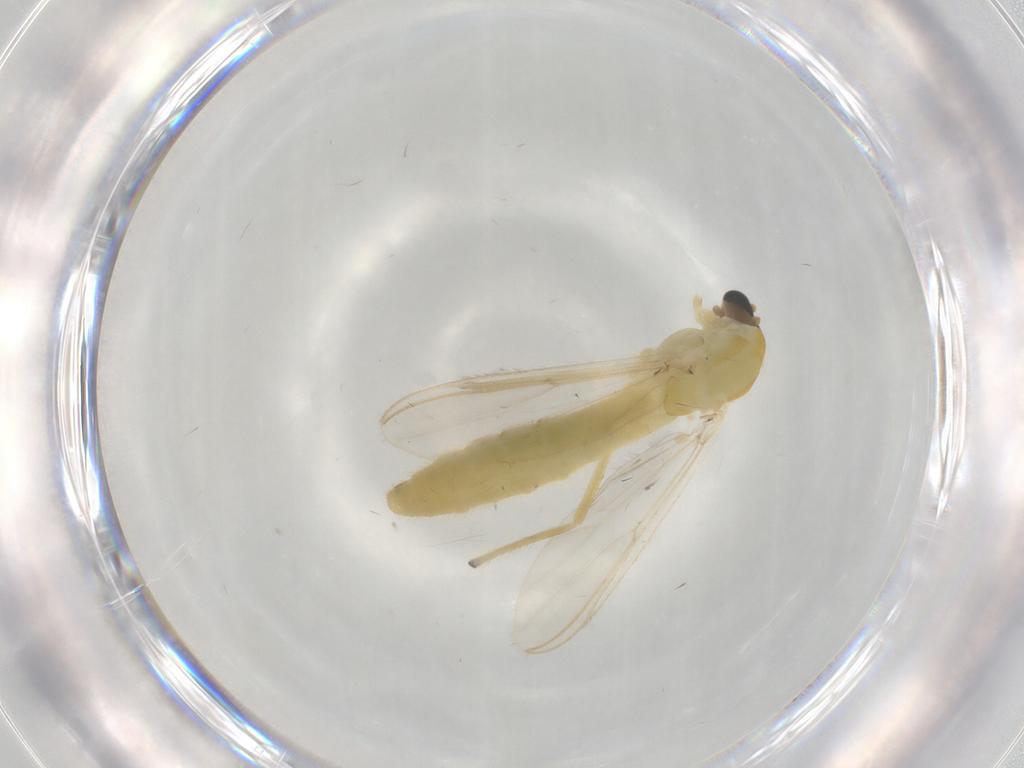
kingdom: Animalia
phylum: Arthropoda
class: Insecta
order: Diptera
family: Chironomidae
